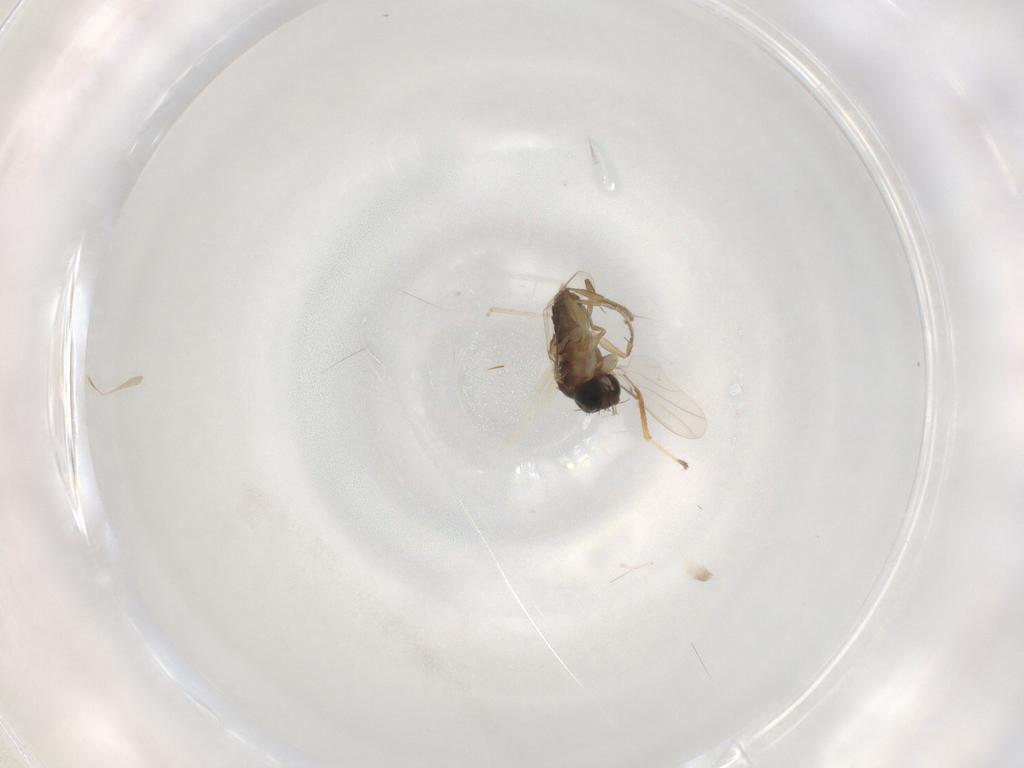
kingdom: Animalia
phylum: Arthropoda
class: Insecta
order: Diptera
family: Phoridae
